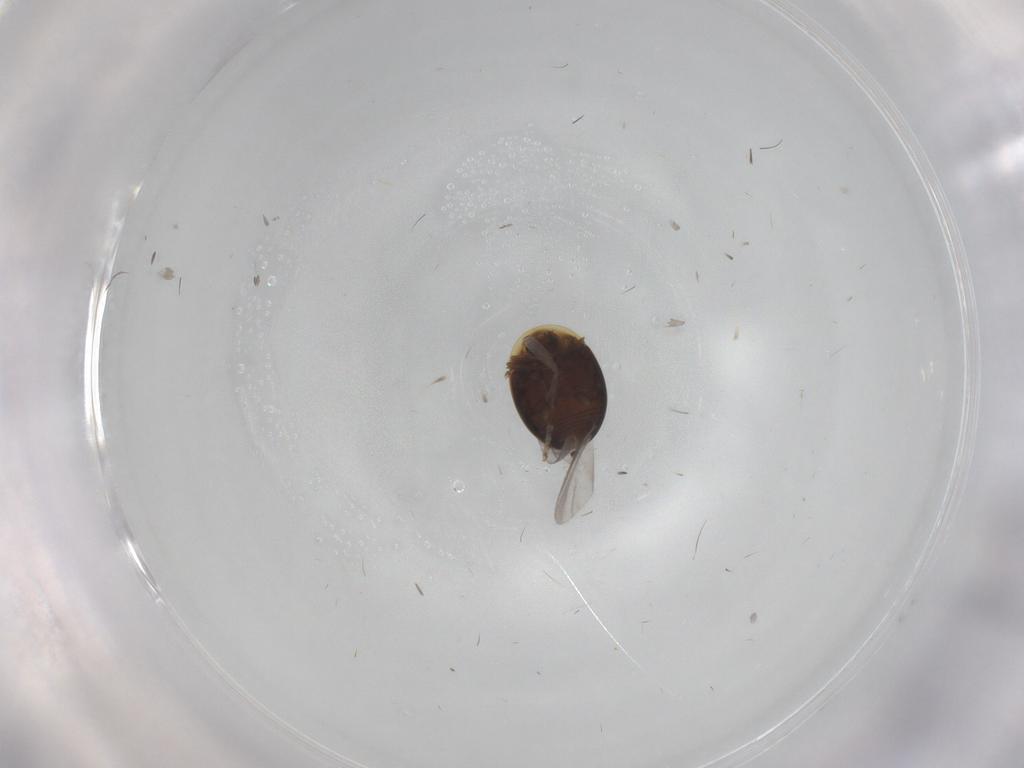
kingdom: Animalia
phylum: Arthropoda
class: Insecta
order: Coleoptera
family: Corylophidae
